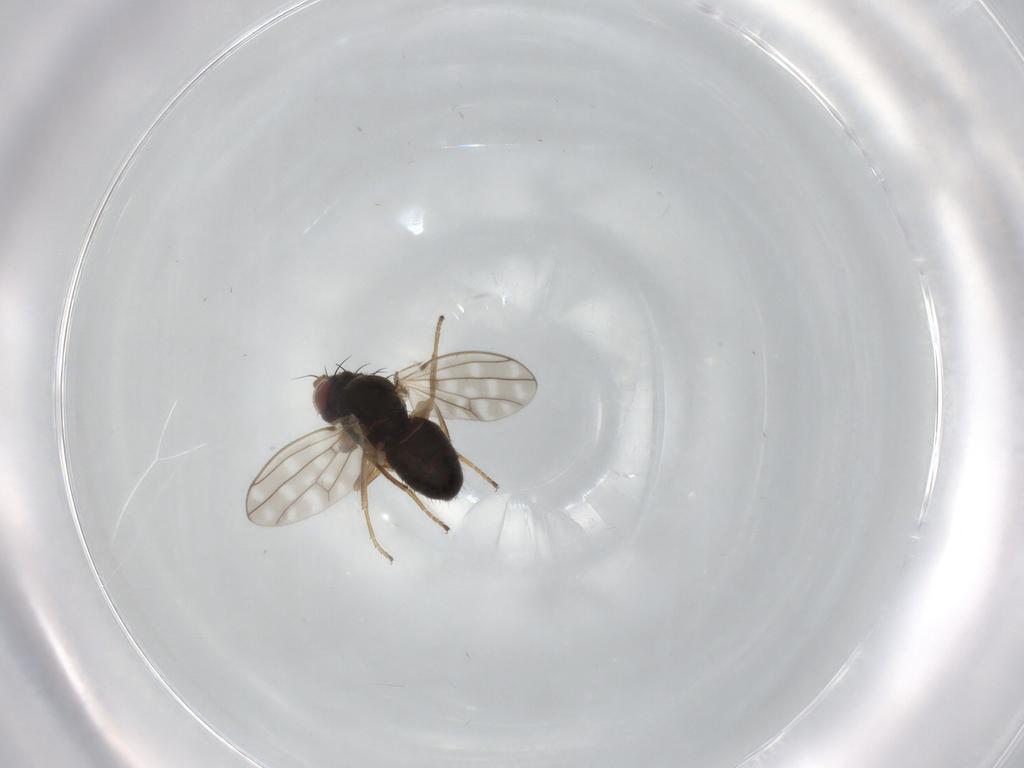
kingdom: Animalia
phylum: Arthropoda
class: Insecta
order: Diptera
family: Ephydridae
